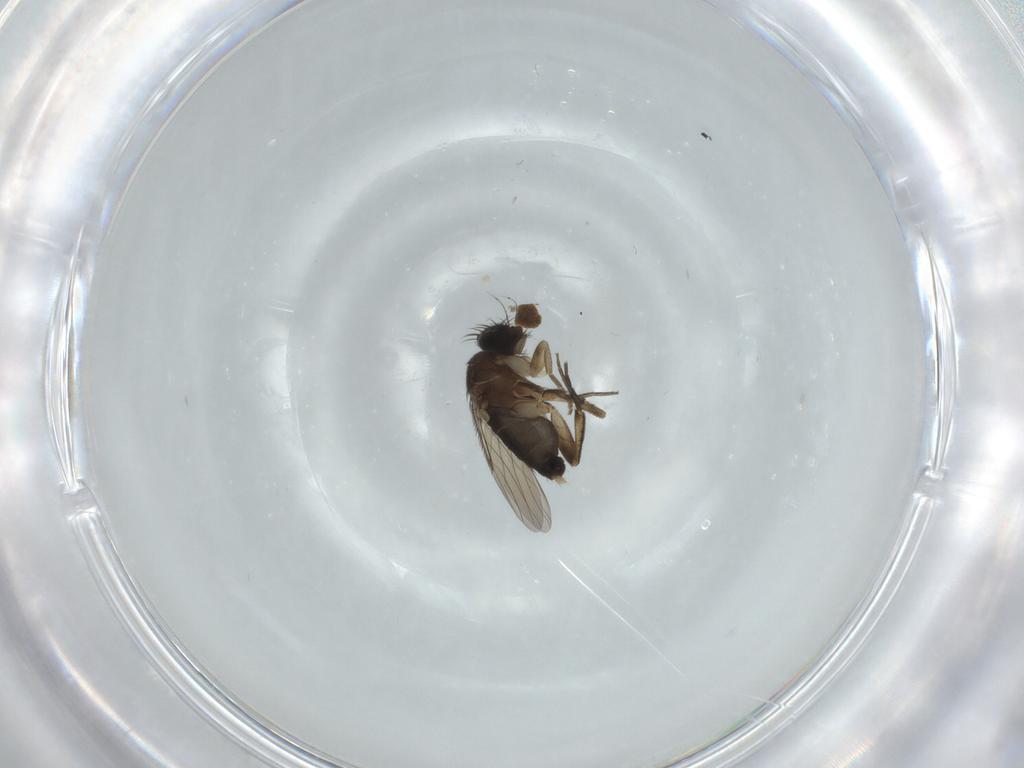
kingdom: Animalia
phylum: Arthropoda
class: Insecta
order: Diptera
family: Phoridae
